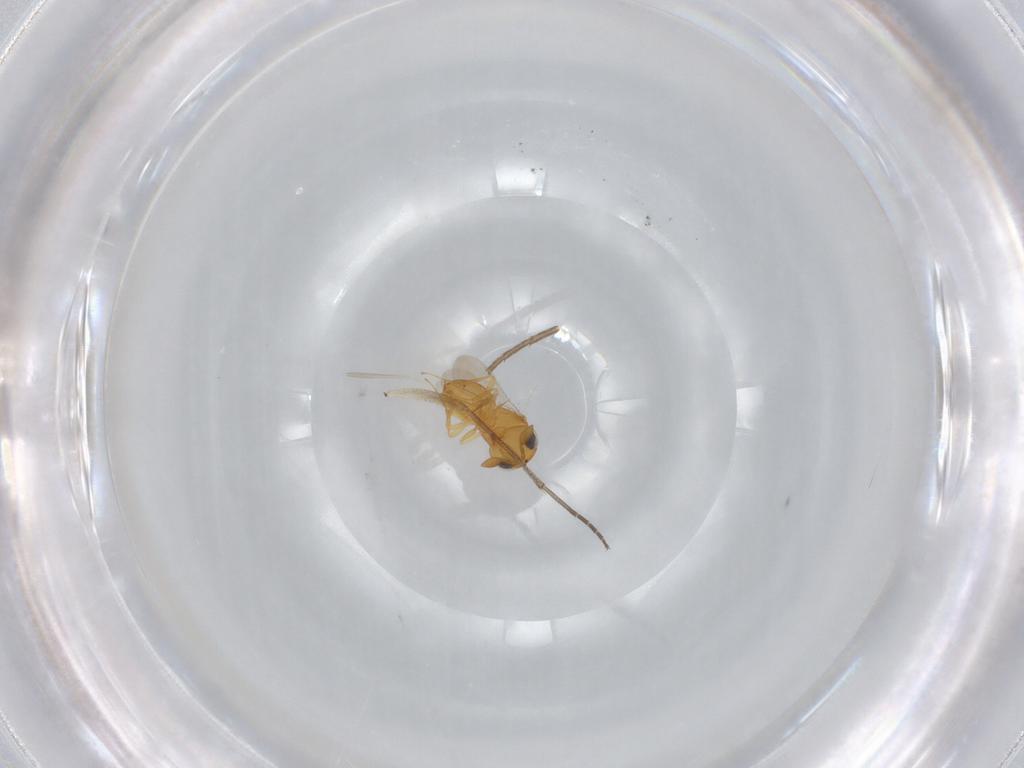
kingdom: Animalia
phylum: Arthropoda
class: Insecta
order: Hymenoptera
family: Scelionidae
